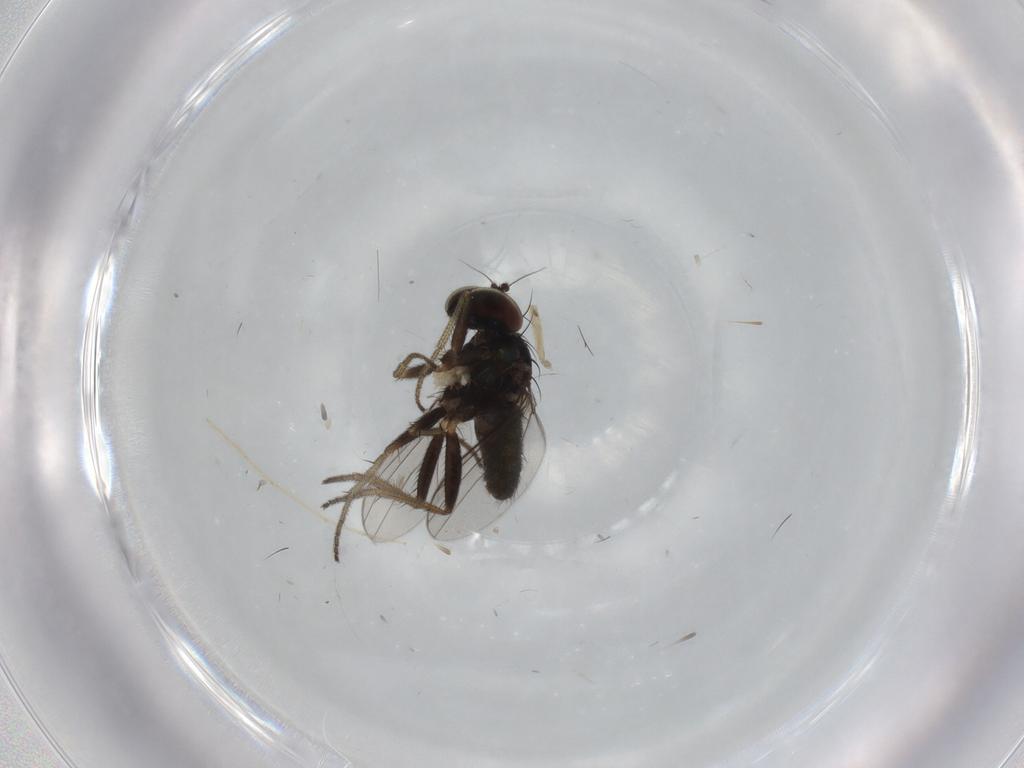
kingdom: Animalia
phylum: Arthropoda
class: Insecta
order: Diptera
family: Chironomidae
